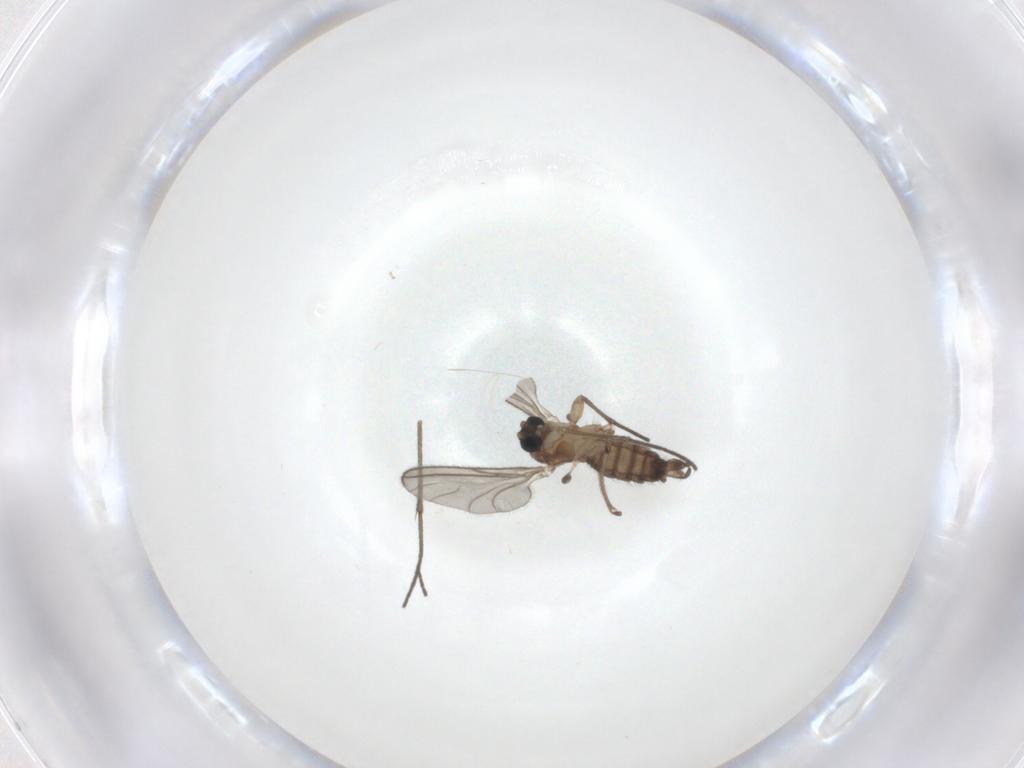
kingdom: Animalia
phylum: Arthropoda
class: Insecta
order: Diptera
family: Sciaridae
